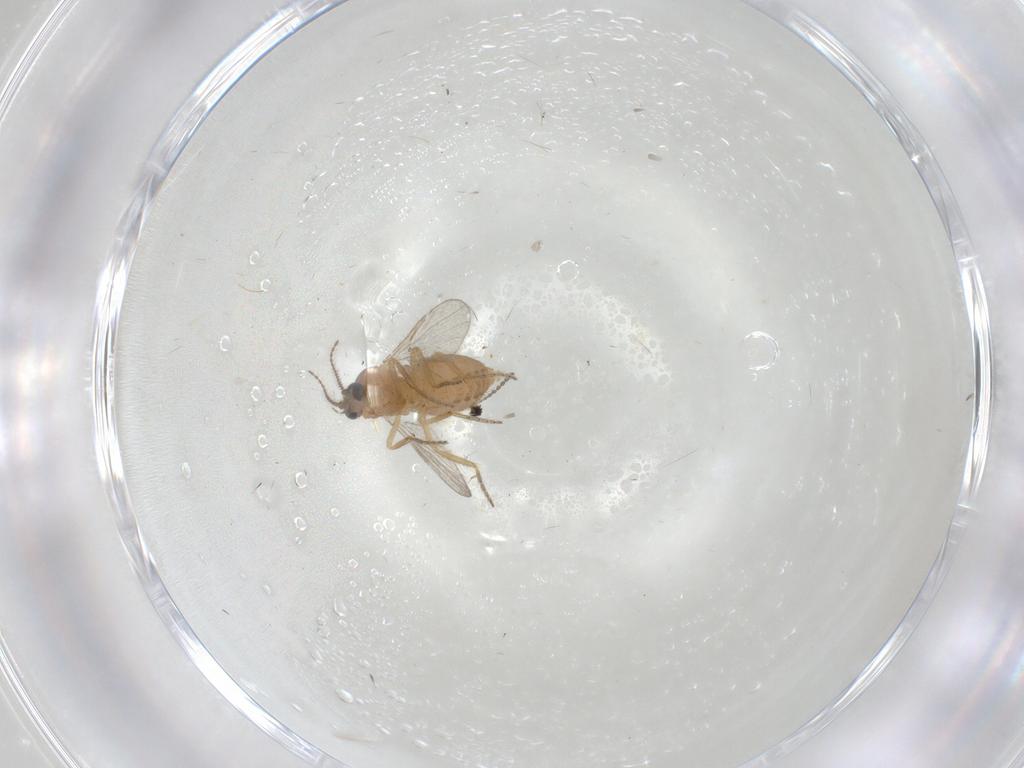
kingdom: Animalia
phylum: Arthropoda
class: Insecta
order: Diptera
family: Ceratopogonidae
